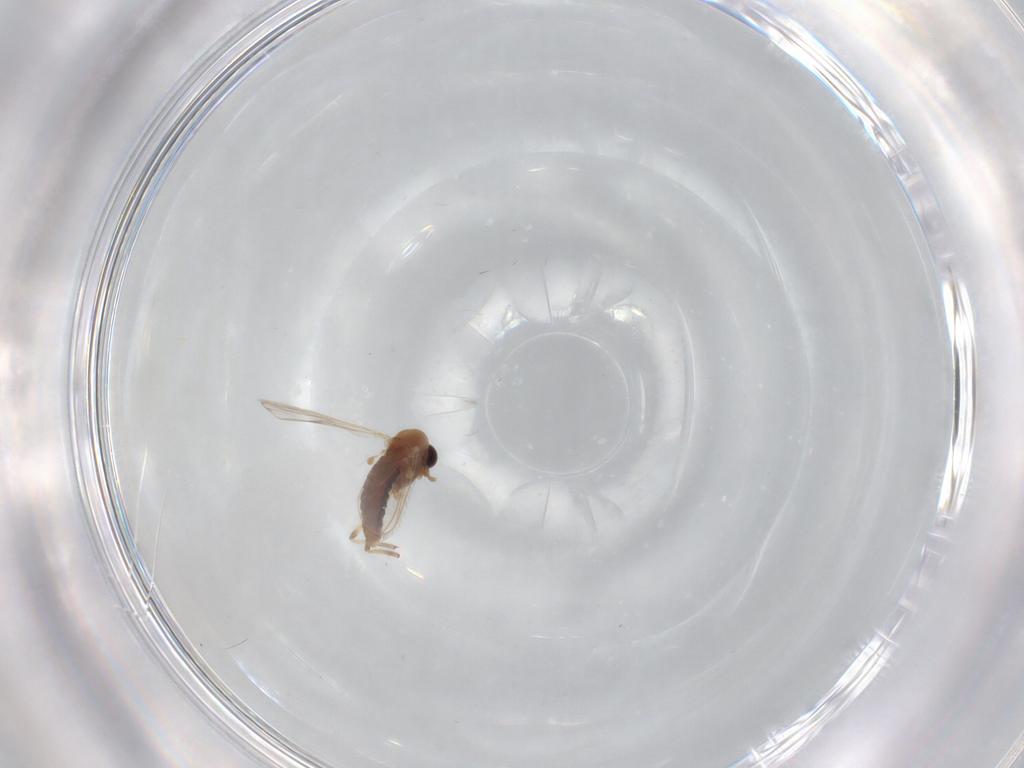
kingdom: Animalia
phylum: Arthropoda
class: Insecta
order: Diptera
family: Chironomidae
